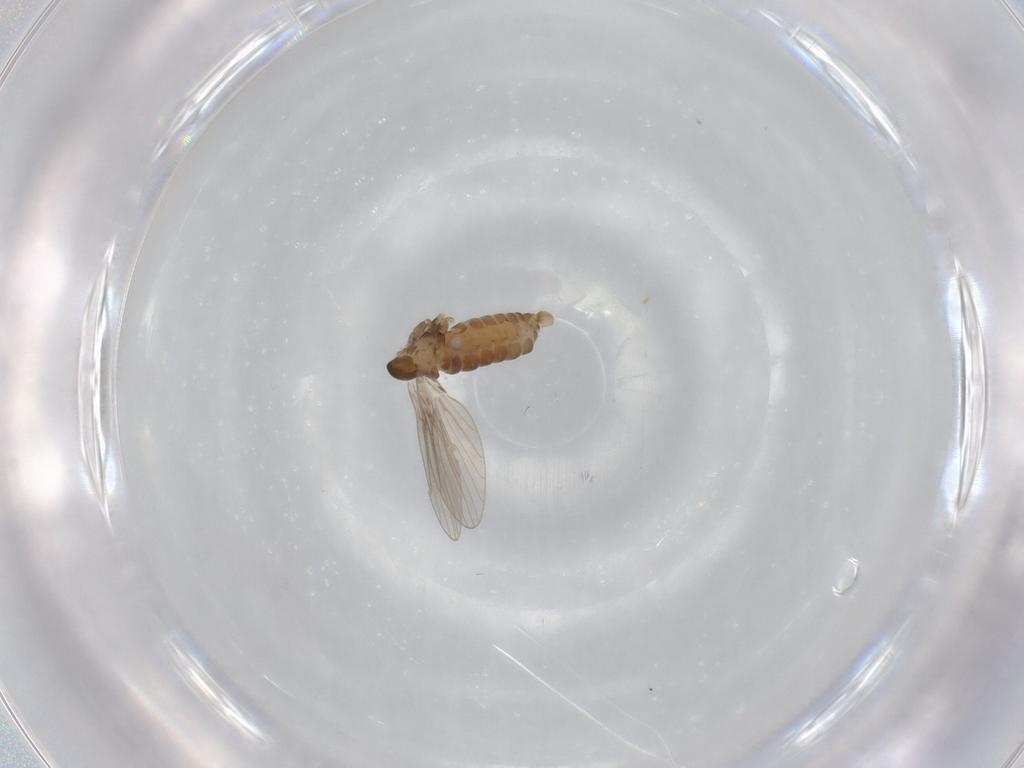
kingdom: Animalia
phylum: Arthropoda
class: Insecta
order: Diptera
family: Psychodidae
